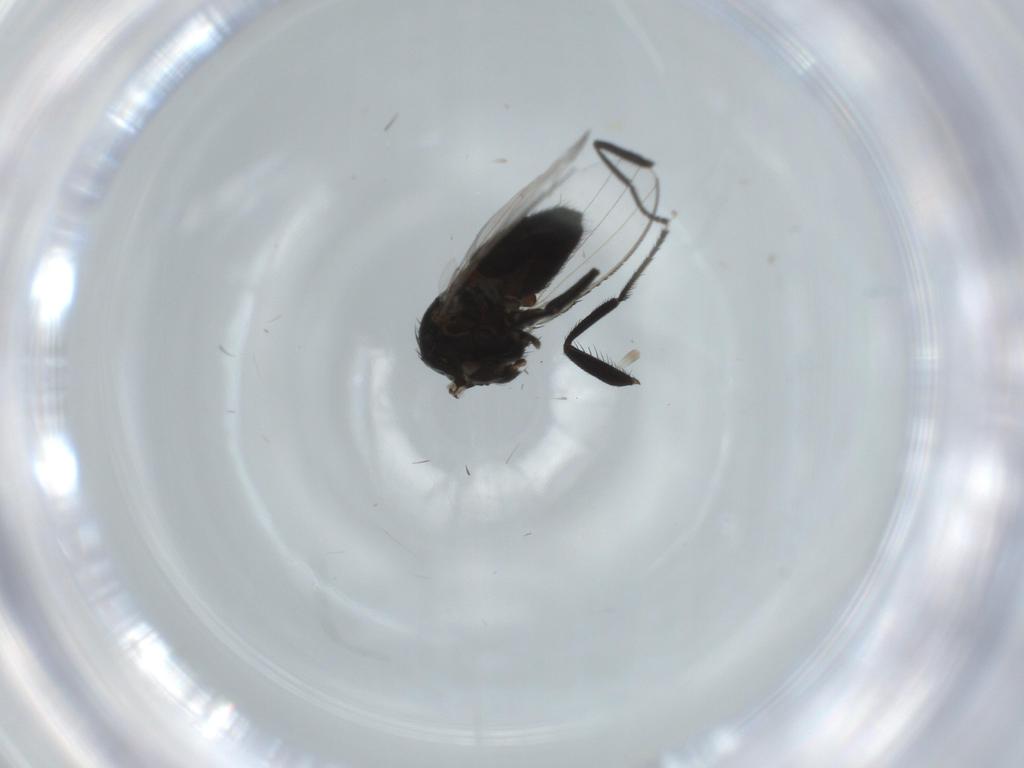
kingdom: Animalia
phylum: Arthropoda
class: Insecta
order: Diptera
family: Milichiidae
